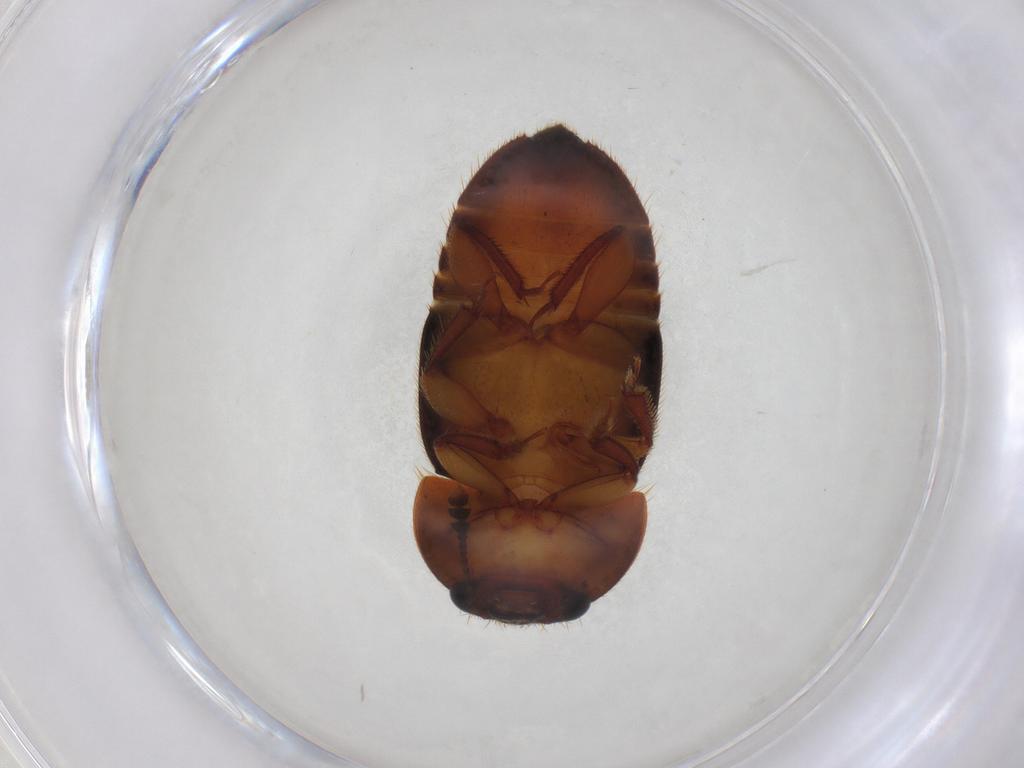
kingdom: Animalia
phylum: Arthropoda
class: Insecta
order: Coleoptera
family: Nitidulidae
